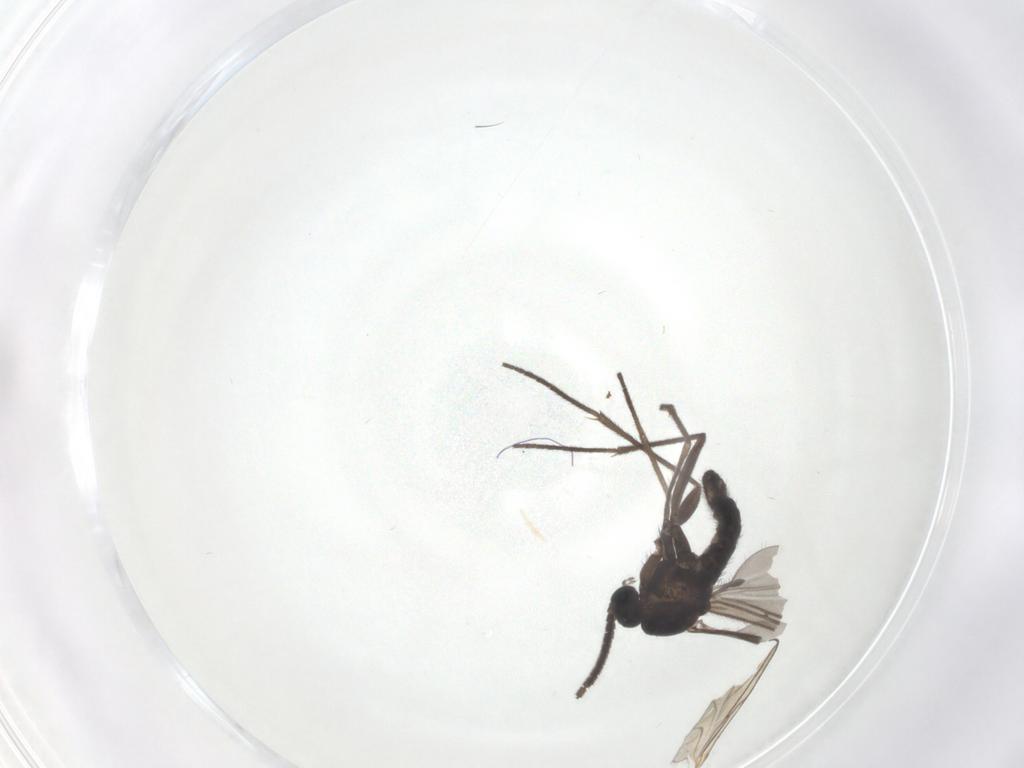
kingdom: Animalia
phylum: Arthropoda
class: Insecta
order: Diptera
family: Sciaridae
